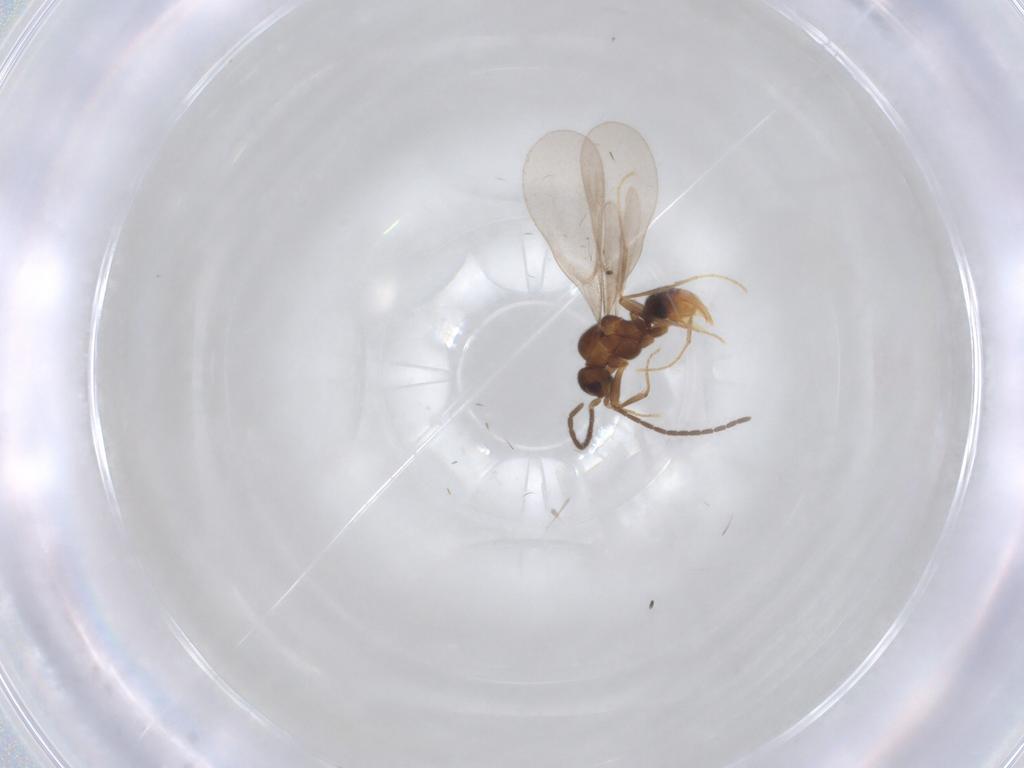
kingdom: Animalia
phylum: Arthropoda
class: Insecta
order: Hymenoptera
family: Formicidae
